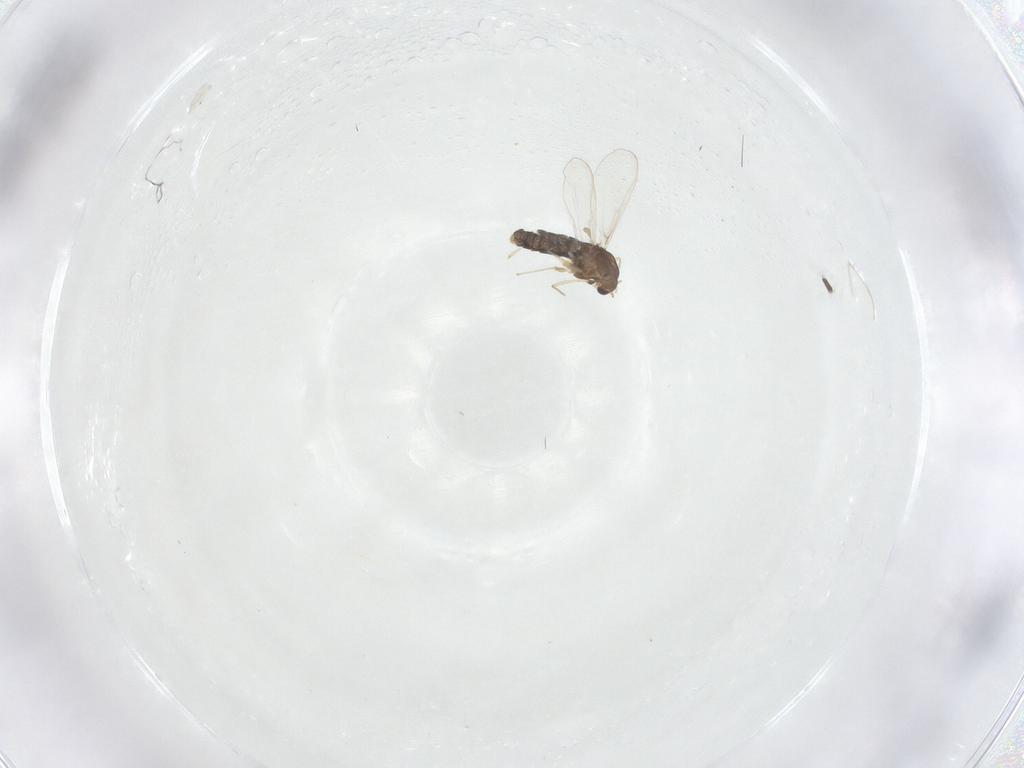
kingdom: Animalia
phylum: Arthropoda
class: Insecta
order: Diptera
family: Chironomidae
